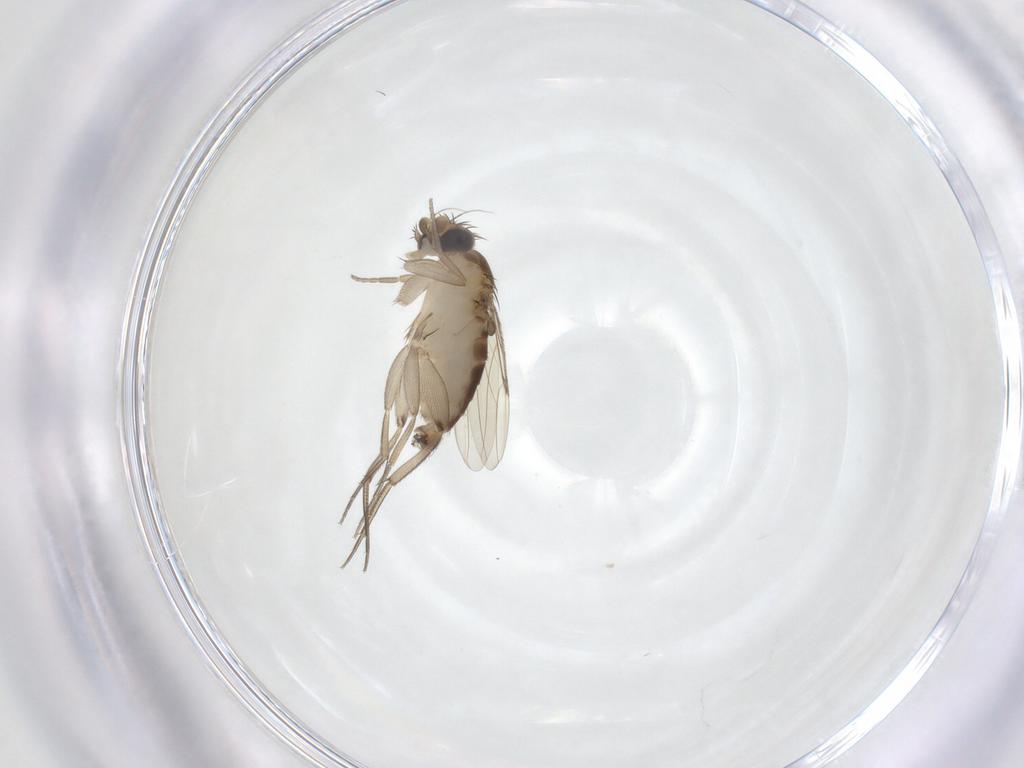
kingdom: Animalia
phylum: Arthropoda
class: Insecta
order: Diptera
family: Phoridae
